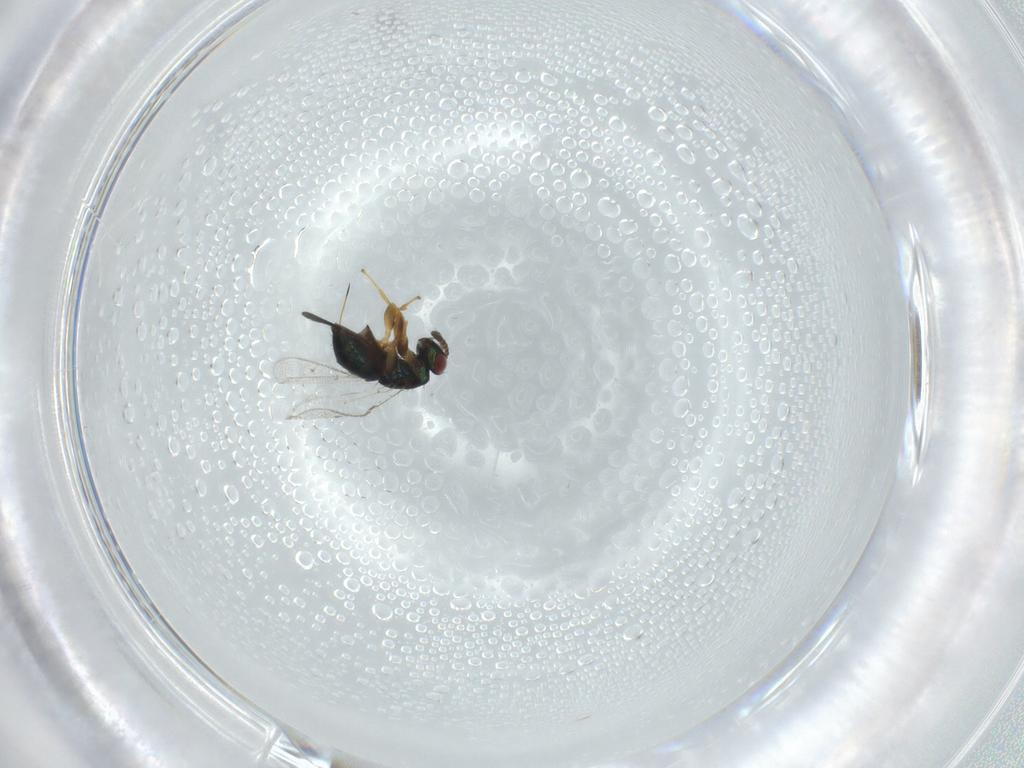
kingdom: Animalia
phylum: Arthropoda
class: Insecta
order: Hymenoptera
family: Torymidae
